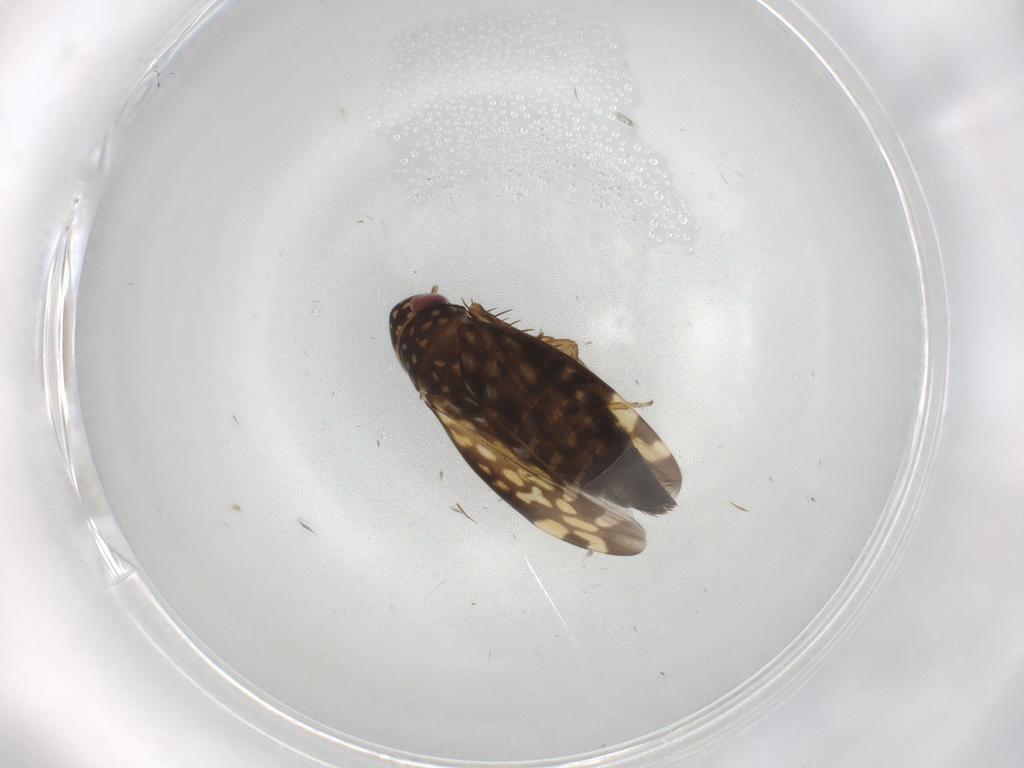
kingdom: Animalia
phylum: Arthropoda
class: Insecta
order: Hemiptera
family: Cicadellidae
